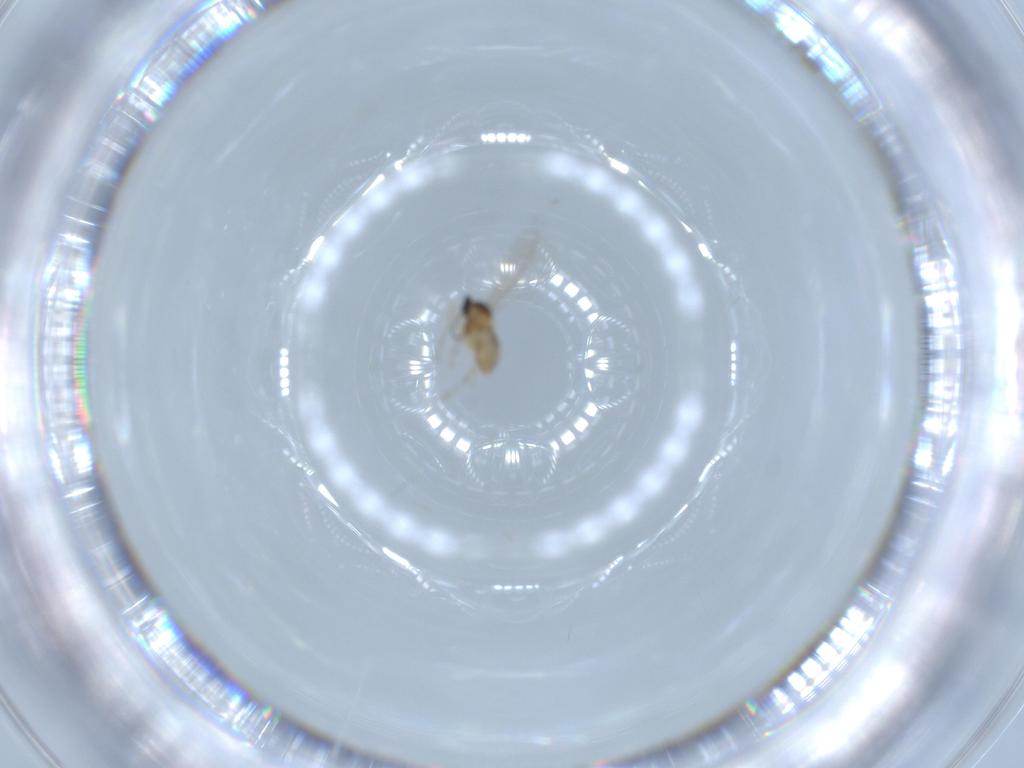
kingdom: Animalia
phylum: Arthropoda
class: Insecta
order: Diptera
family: Cecidomyiidae
